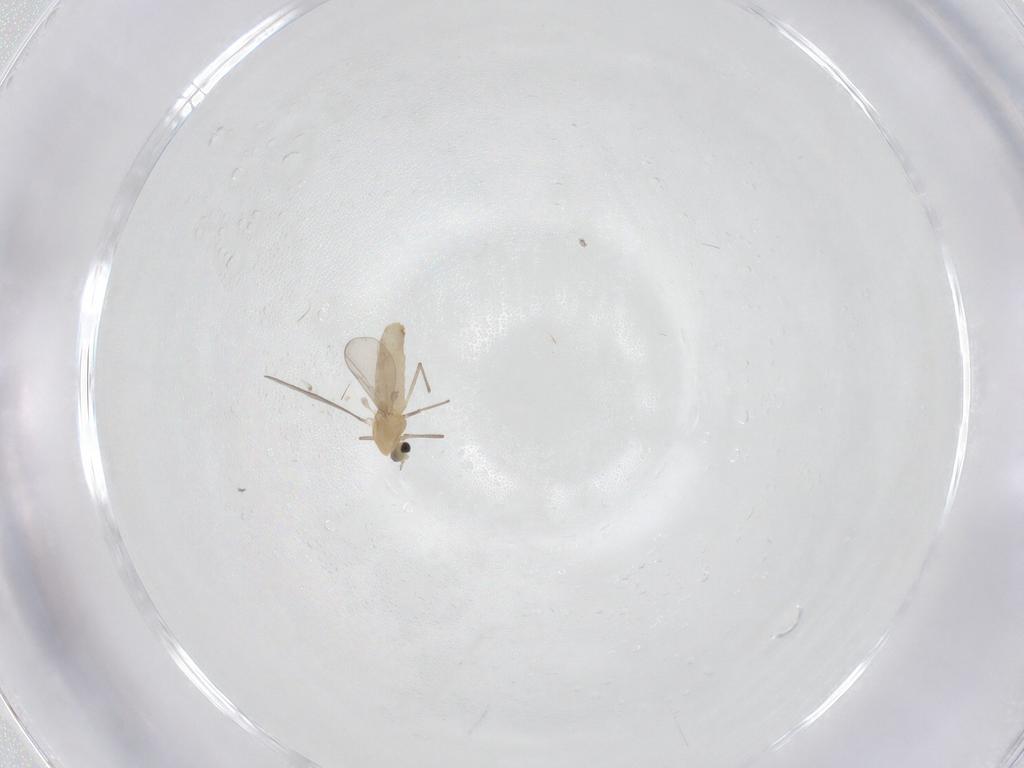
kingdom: Animalia
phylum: Arthropoda
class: Insecta
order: Diptera
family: Chironomidae
